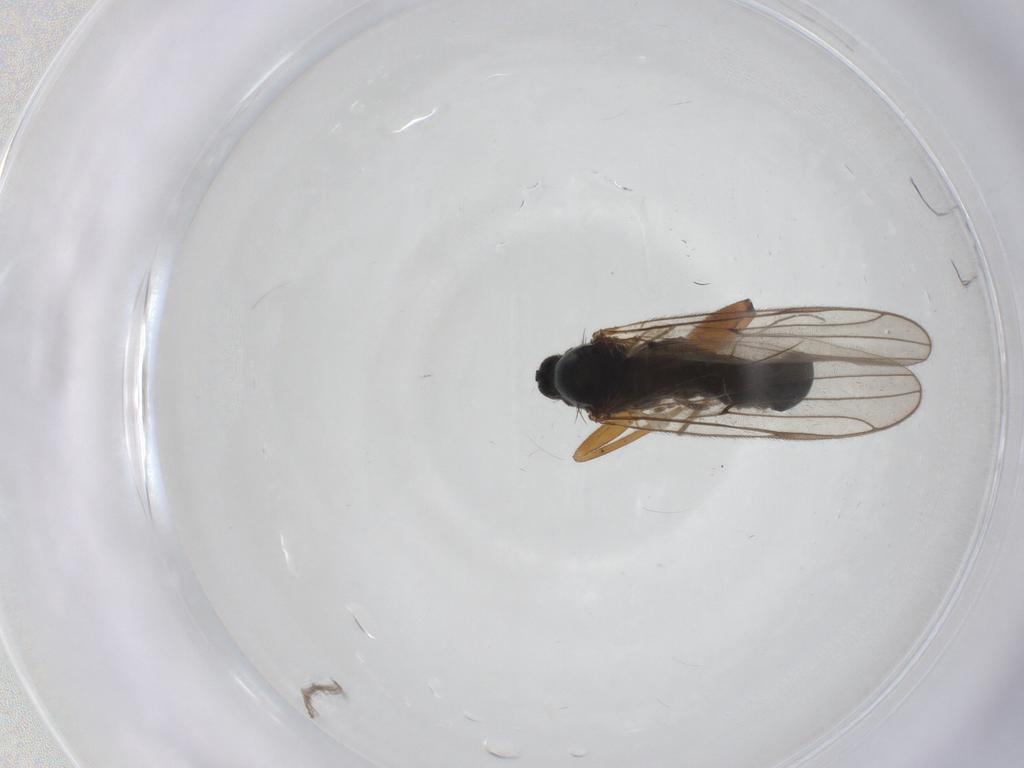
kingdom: Animalia
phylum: Arthropoda
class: Insecta
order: Diptera
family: Hybotidae
